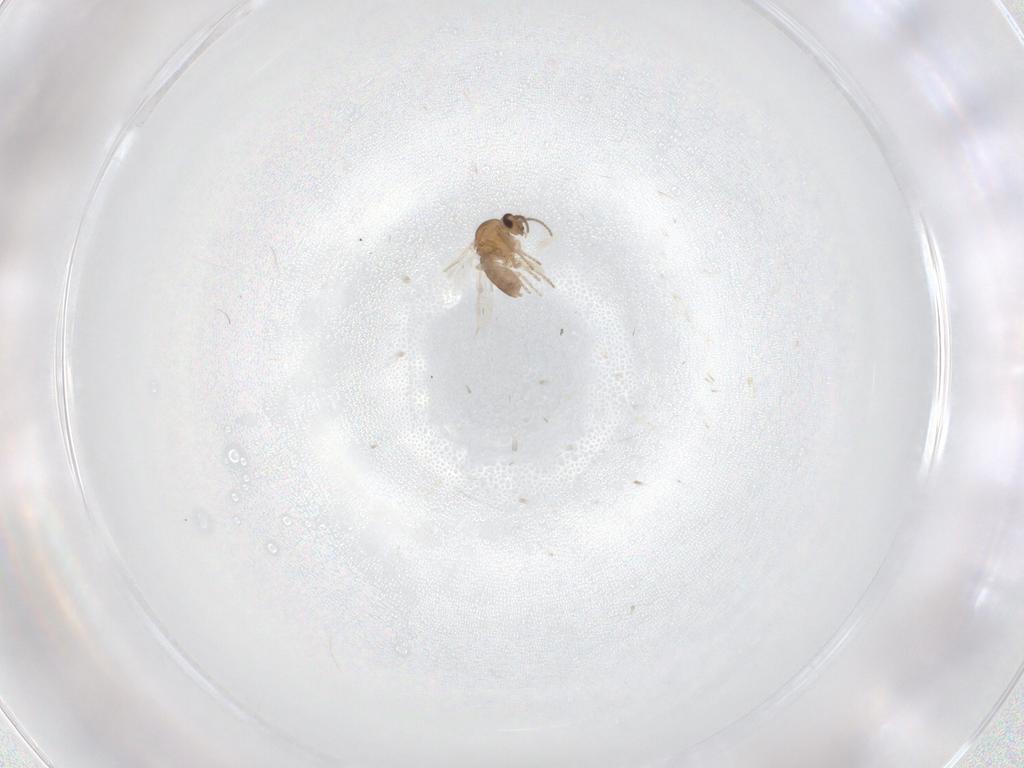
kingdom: Animalia
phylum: Arthropoda
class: Insecta
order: Diptera
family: Ceratopogonidae
